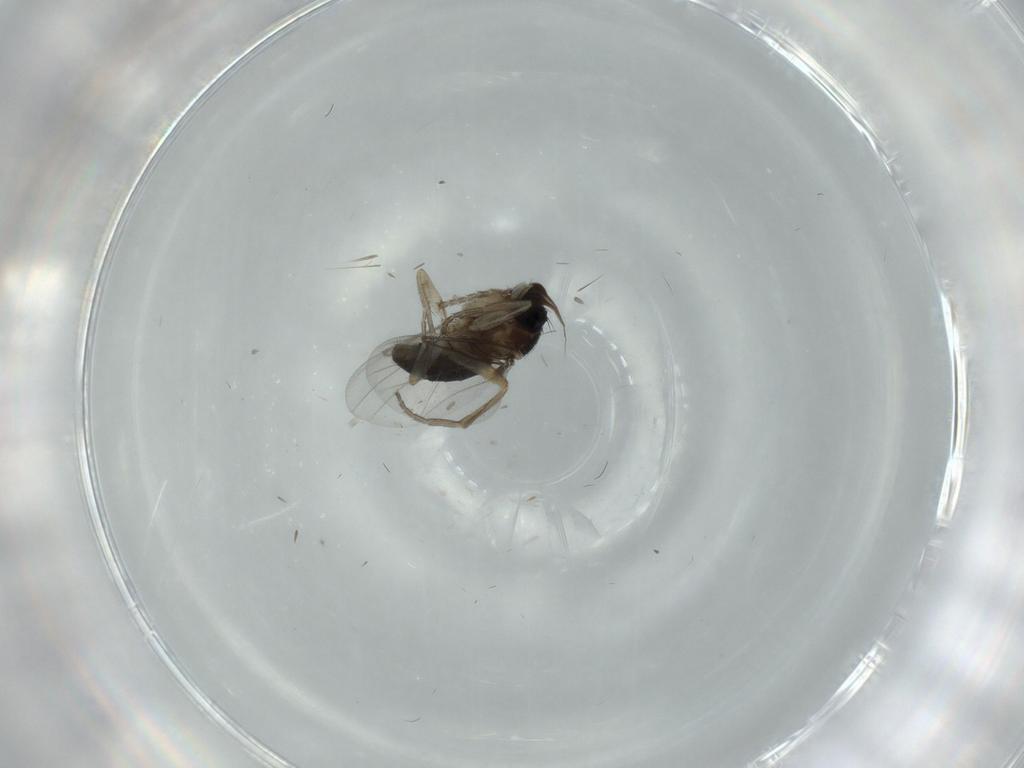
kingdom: Animalia
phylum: Arthropoda
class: Insecta
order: Diptera
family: Phoridae
